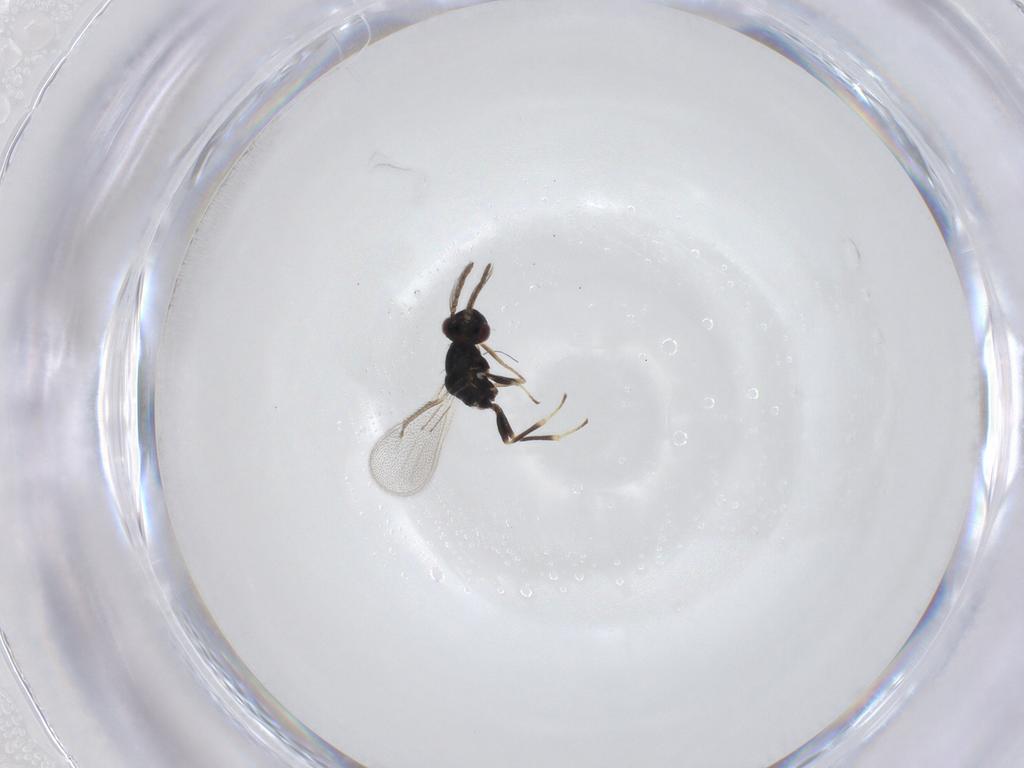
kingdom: Animalia
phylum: Arthropoda
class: Insecta
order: Hymenoptera
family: Eulophidae
